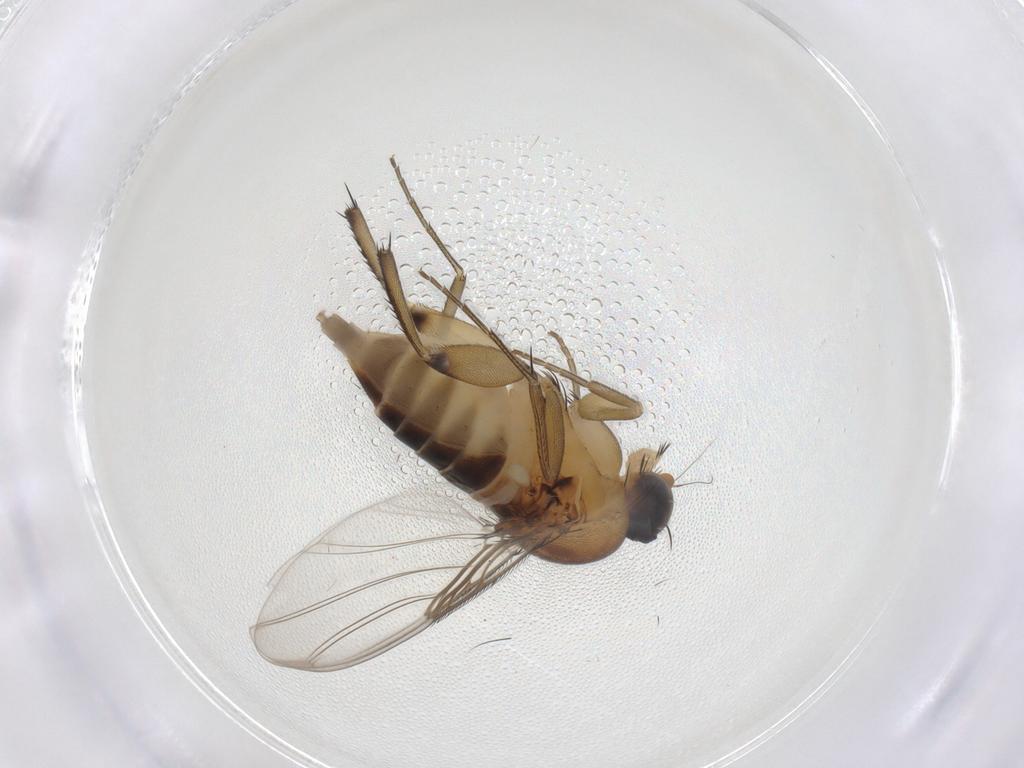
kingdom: Animalia
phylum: Arthropoda
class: Insecta
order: Diptera
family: Phoridae
